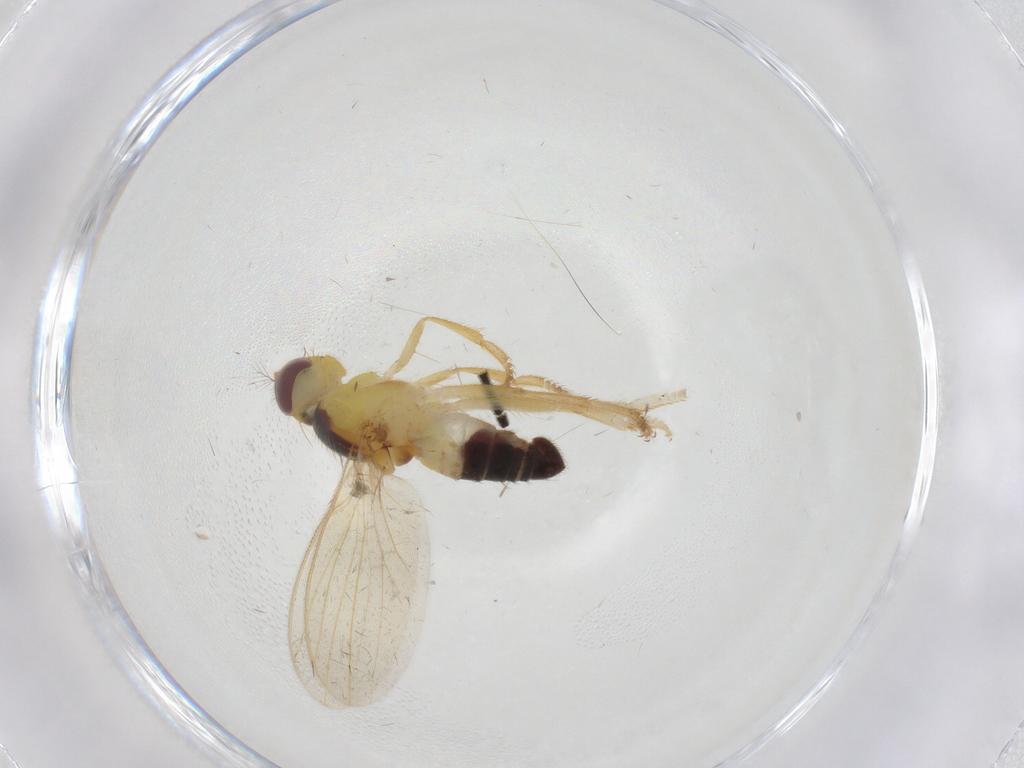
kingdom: Animalia
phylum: Arthropoda
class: Insecta
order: Diptera
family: Periscelididae
